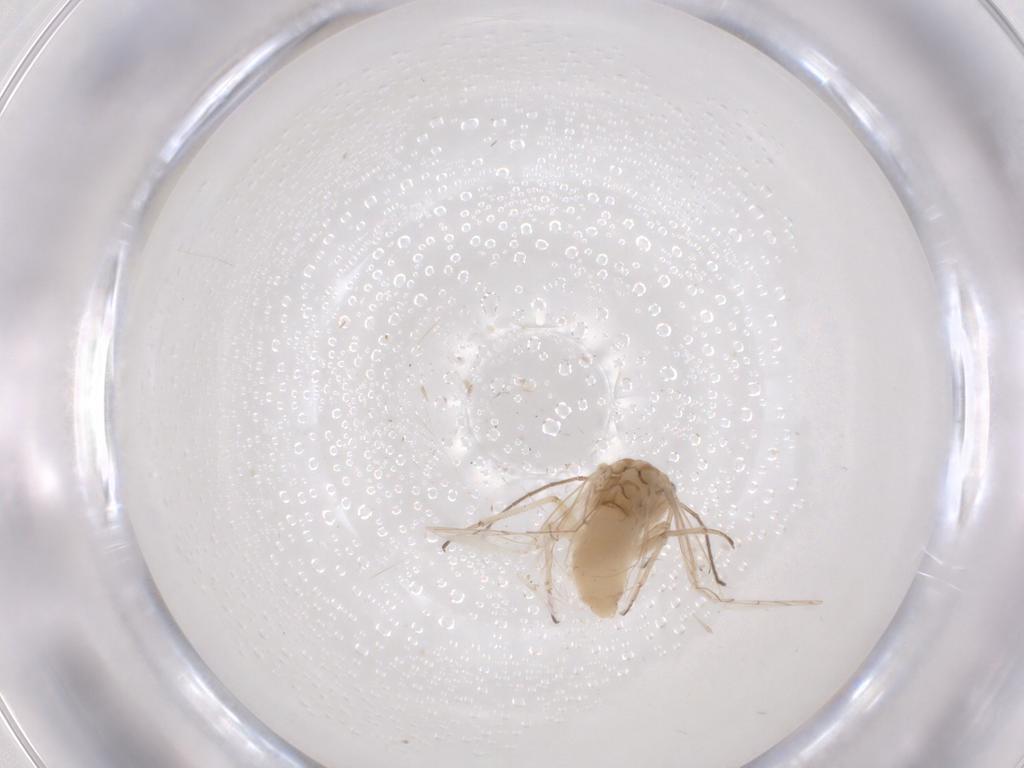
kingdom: Animalia
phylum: Arthropoda
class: Insecta
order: Psocodea
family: Elipsocidae
